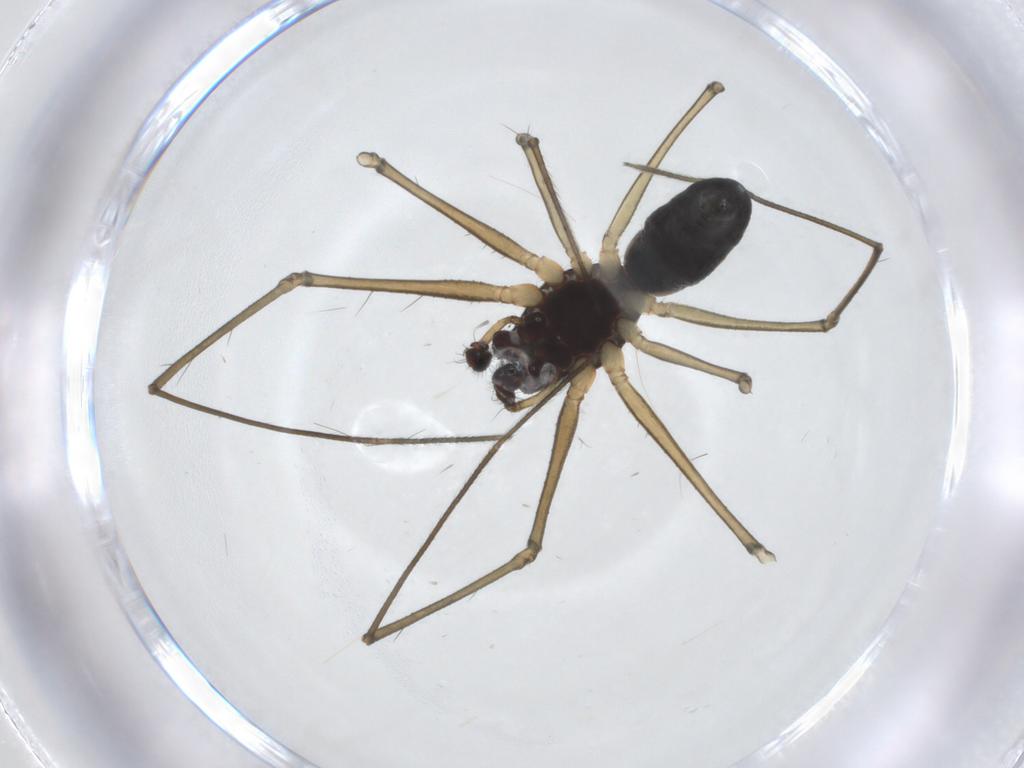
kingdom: Animalia
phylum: Arthropoda
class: Arachnida
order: Araneae
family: Linyphiidae
